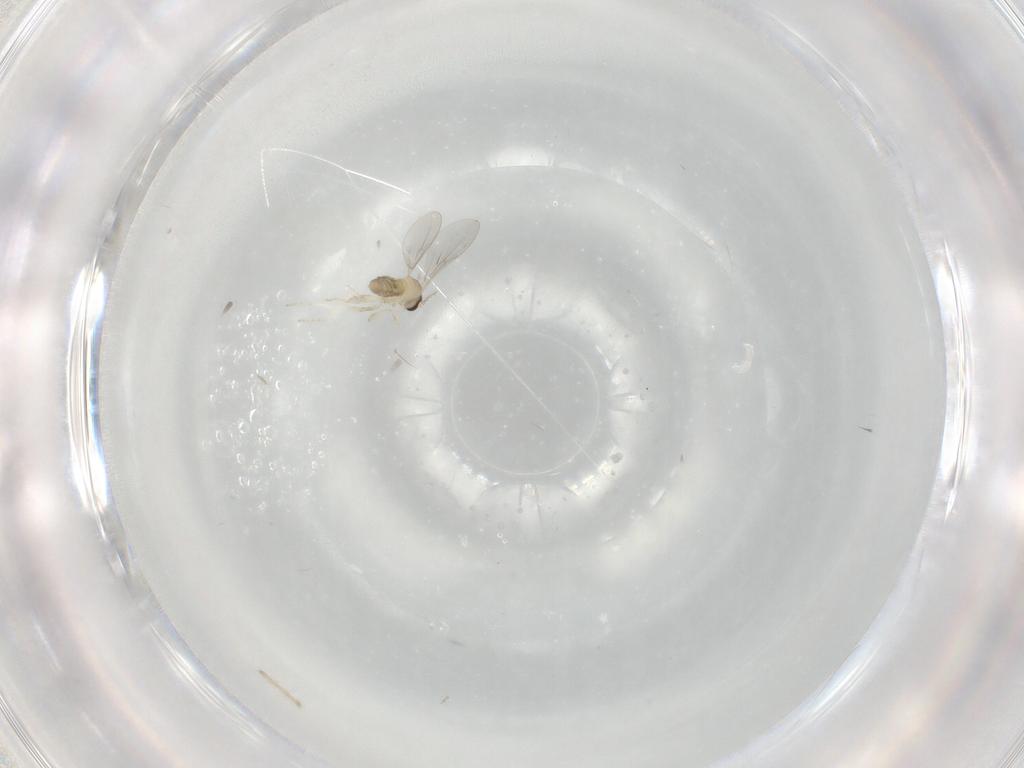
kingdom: Animalia
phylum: Arthropoda
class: Insecta
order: Diptera
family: Cecidomyiidae
